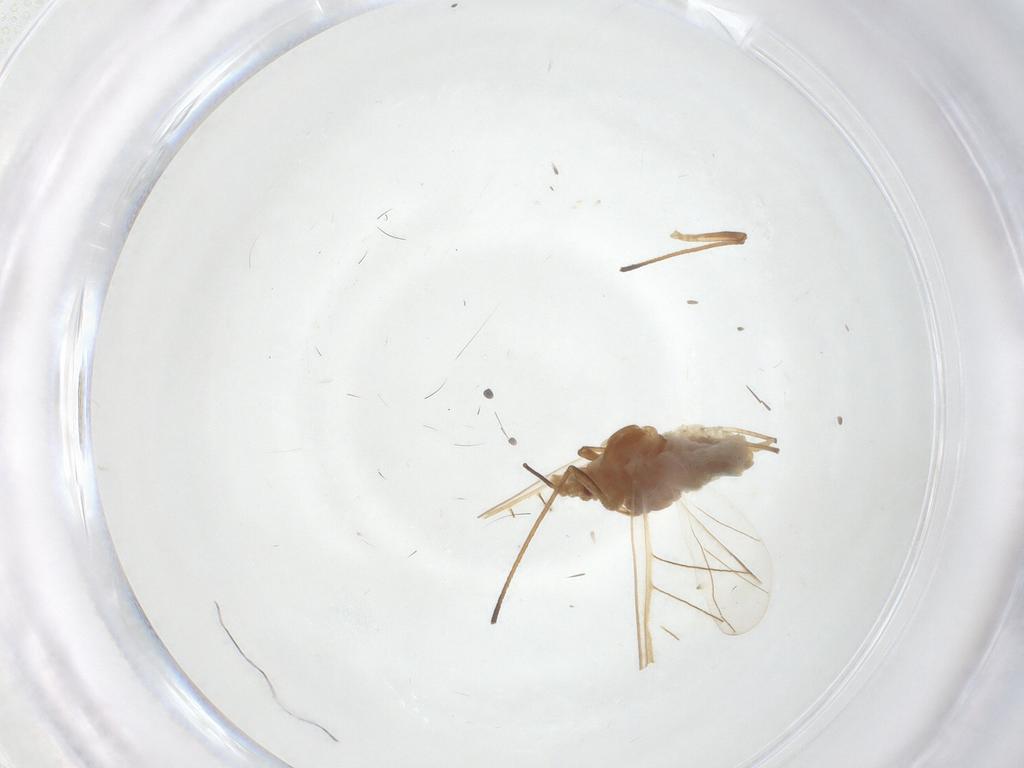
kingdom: Animalia
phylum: Arthropoda
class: Insecta
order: Hemiptera
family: Aphididae
